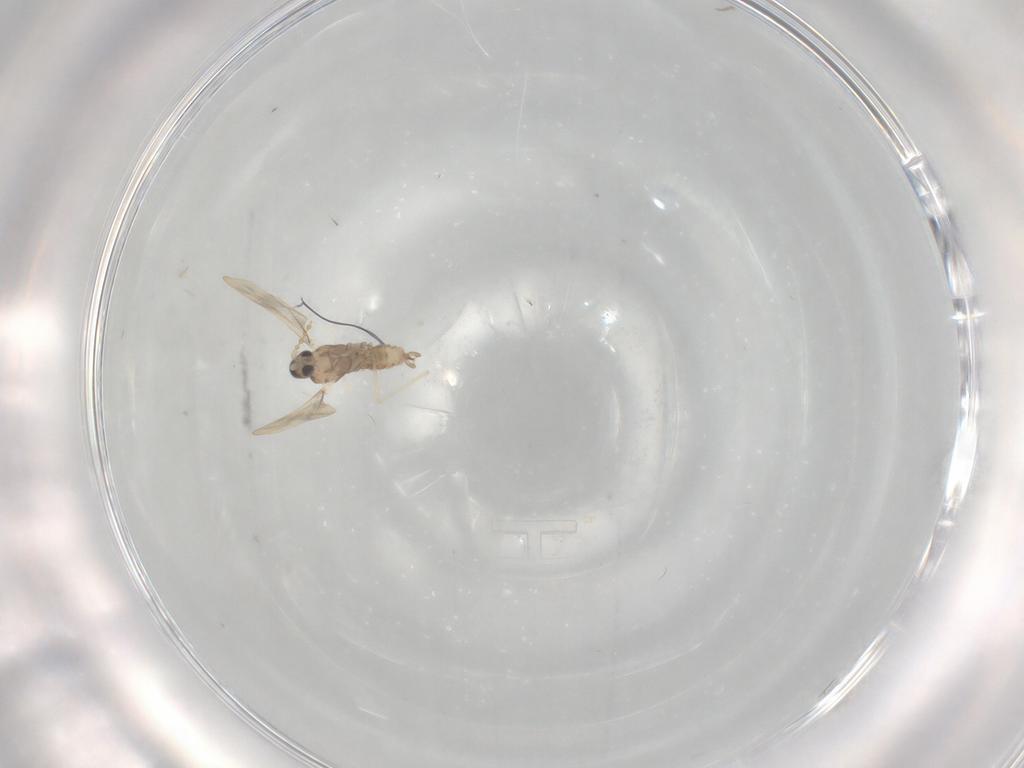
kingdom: Animalia
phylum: Arthropoda
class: Insecta
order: Diptera
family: Cecidomyiidae
